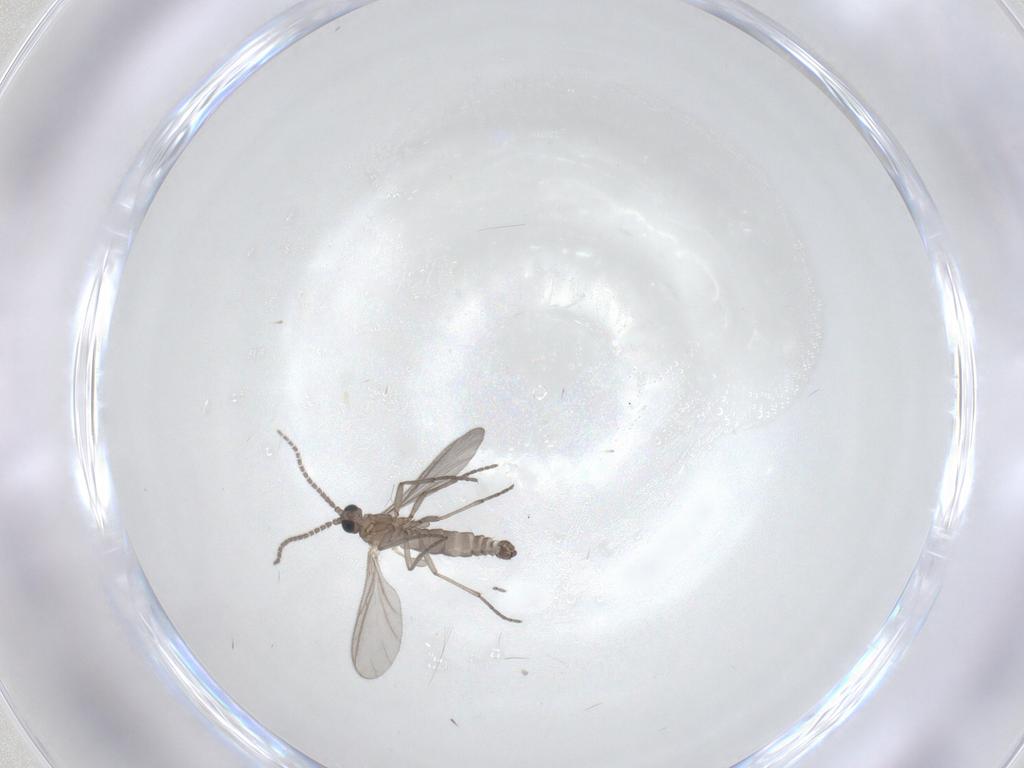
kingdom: Animalia
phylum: Arthropoda
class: Insecta
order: Diptera
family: Sciaridae
